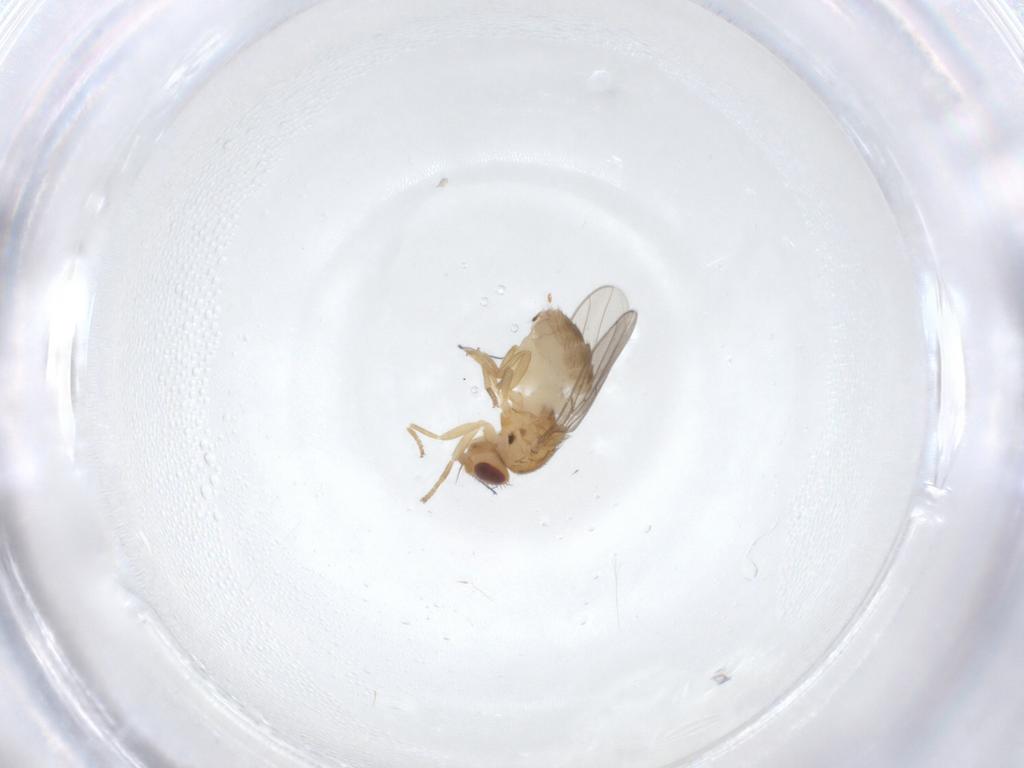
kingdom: Animalia
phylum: Arthropoda
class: Insecta
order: Diptera
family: Chloropidae
